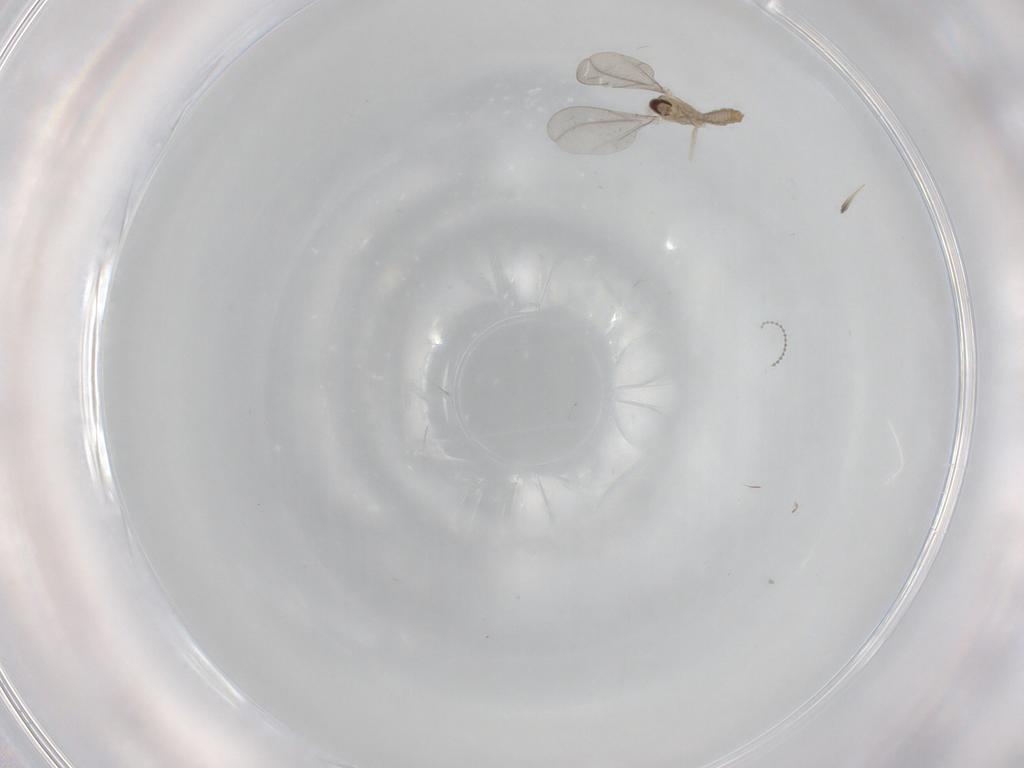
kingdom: Animalia
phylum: Arthropoda
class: Insecta
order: Diptera
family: Cecidomyiidae
